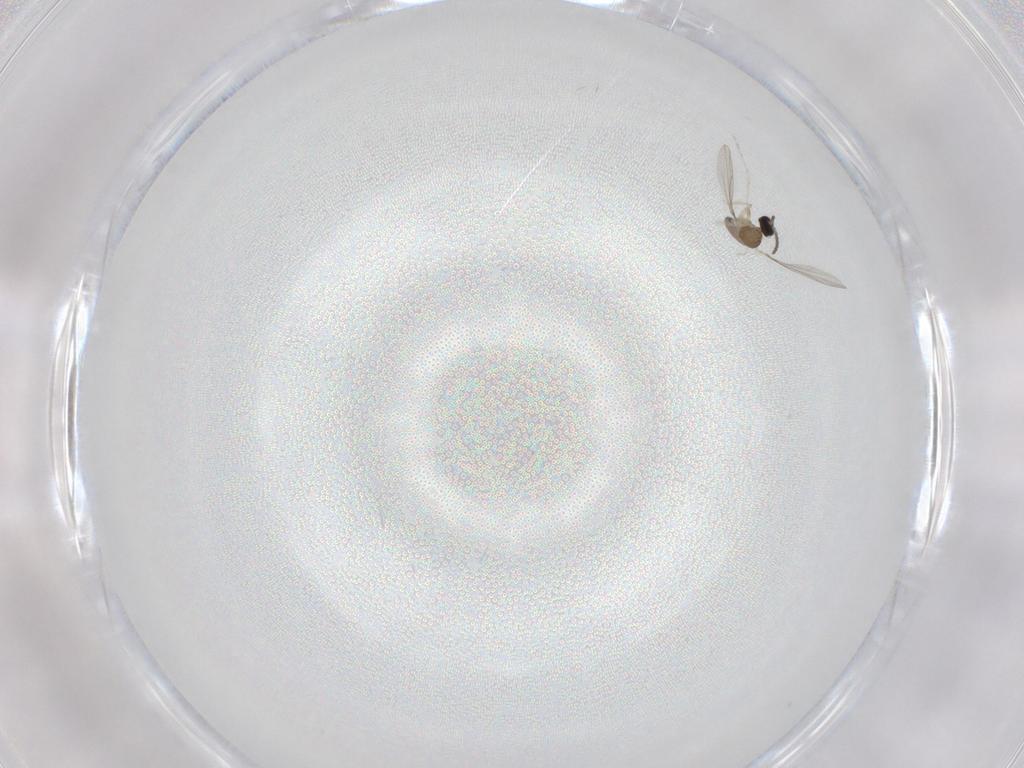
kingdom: Animalia
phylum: Arthropoda
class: Insecta
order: Diptera
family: Cecidomyiidae
